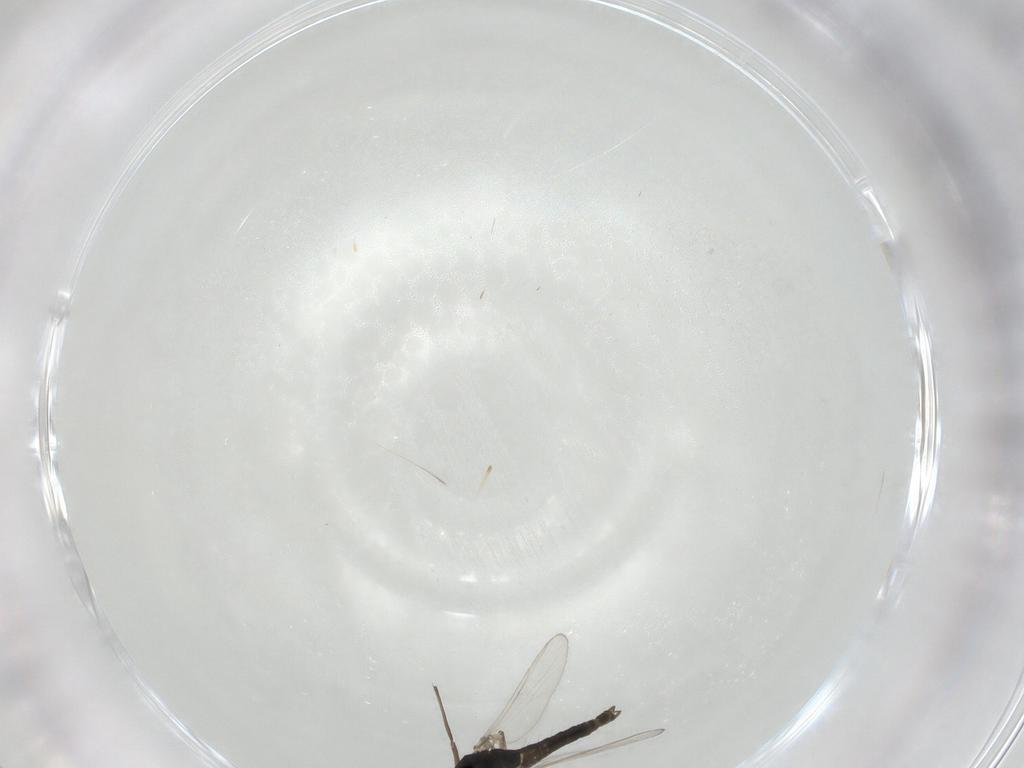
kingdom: Animalia
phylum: Arthropoda
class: Insecta
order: Diptera
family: Chironomidae
